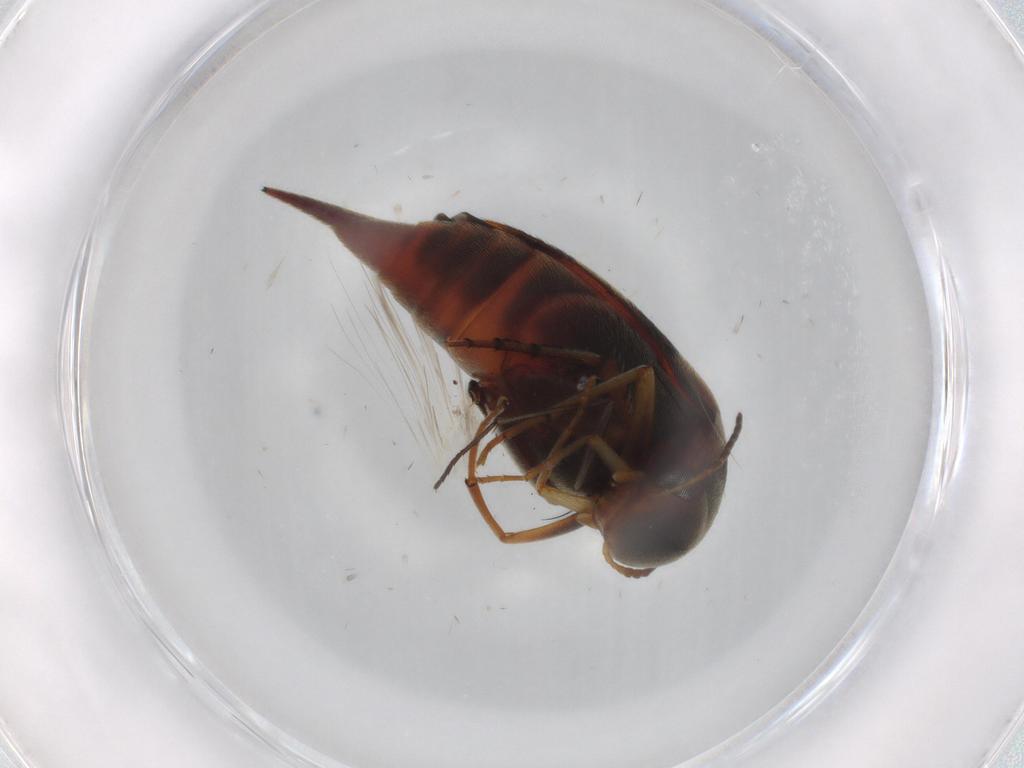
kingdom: Animalia
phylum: Arthropoda
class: Insecta
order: Coleoptera
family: Mordellidae
